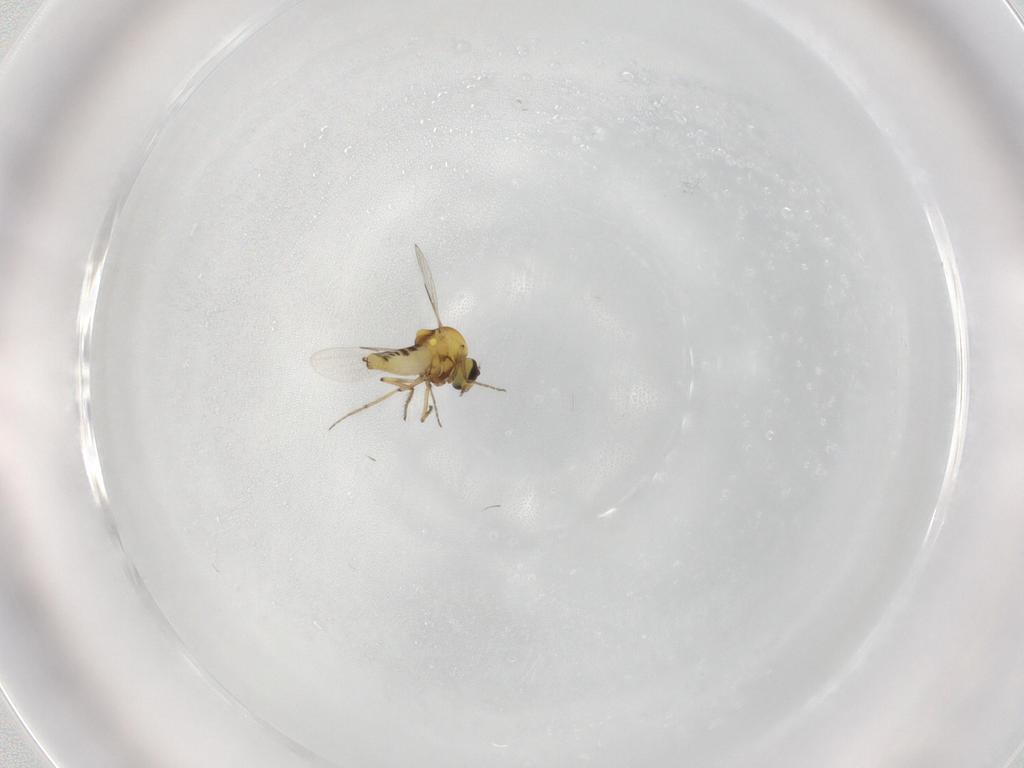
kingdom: Animalia
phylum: Arthropoda
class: Insecta
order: Diptera
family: Ceratopogonidae
